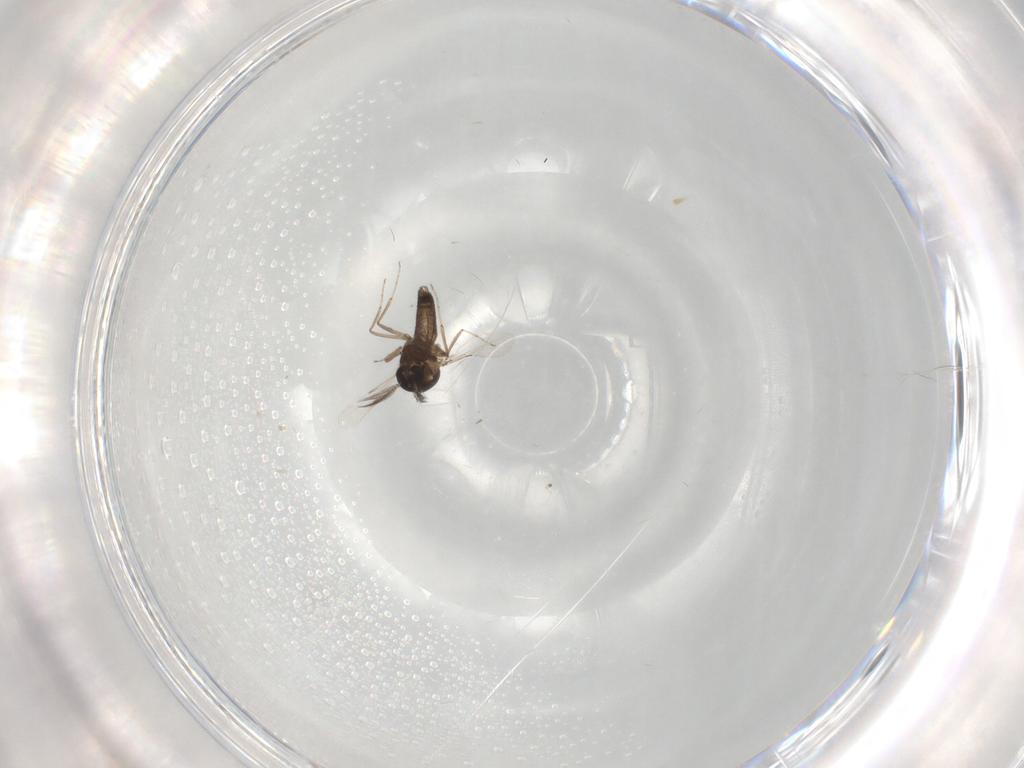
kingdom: Animalia
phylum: Arthropoda
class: Insecta
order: Diptera
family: Ceratopogonidae
